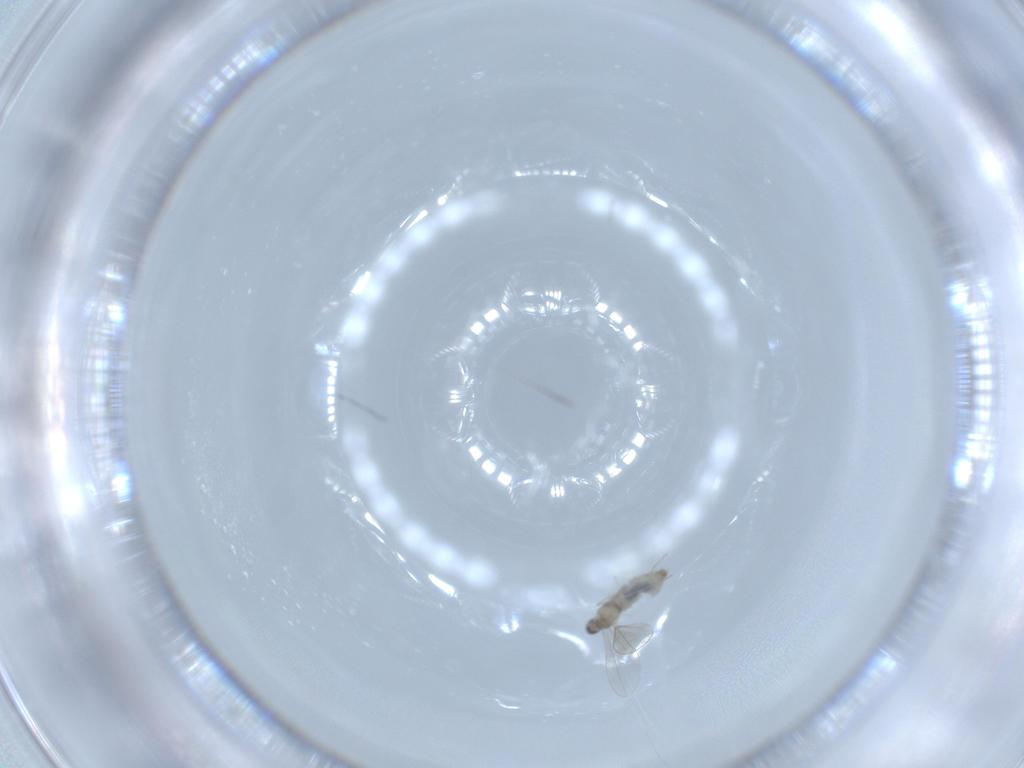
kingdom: Animalia
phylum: Arthropoda
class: Insecta
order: Diptera
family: Cecidomyiidae
